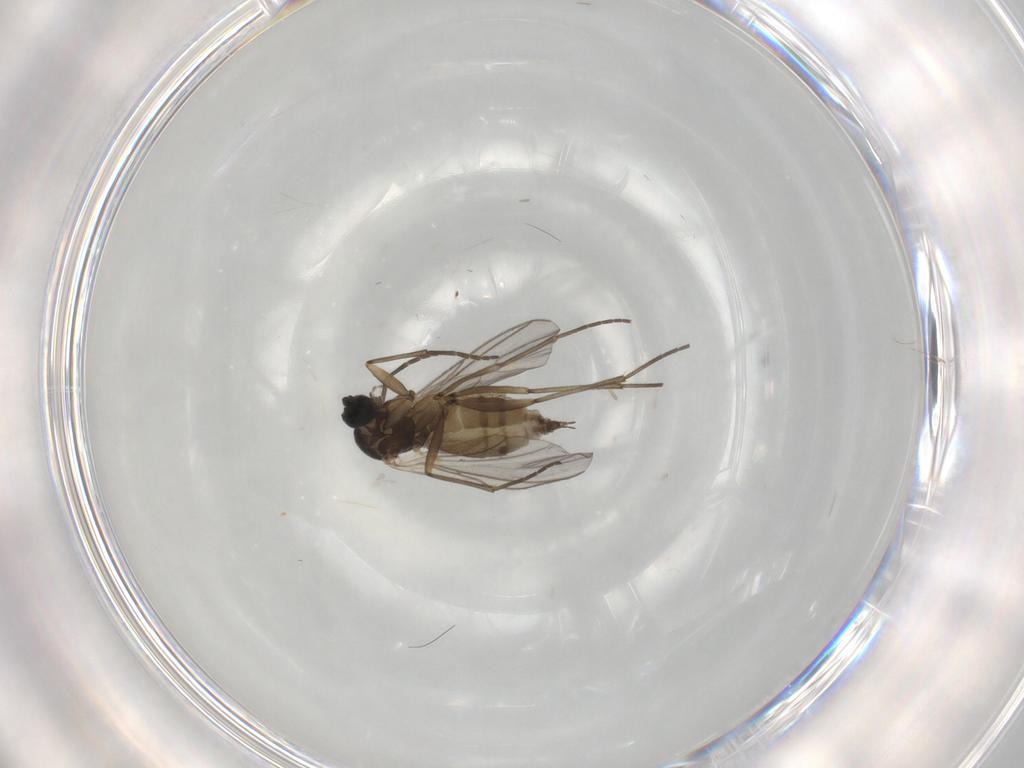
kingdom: Animalia
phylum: Arthropoda
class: Insecta
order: Diptera
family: Sciaridae
